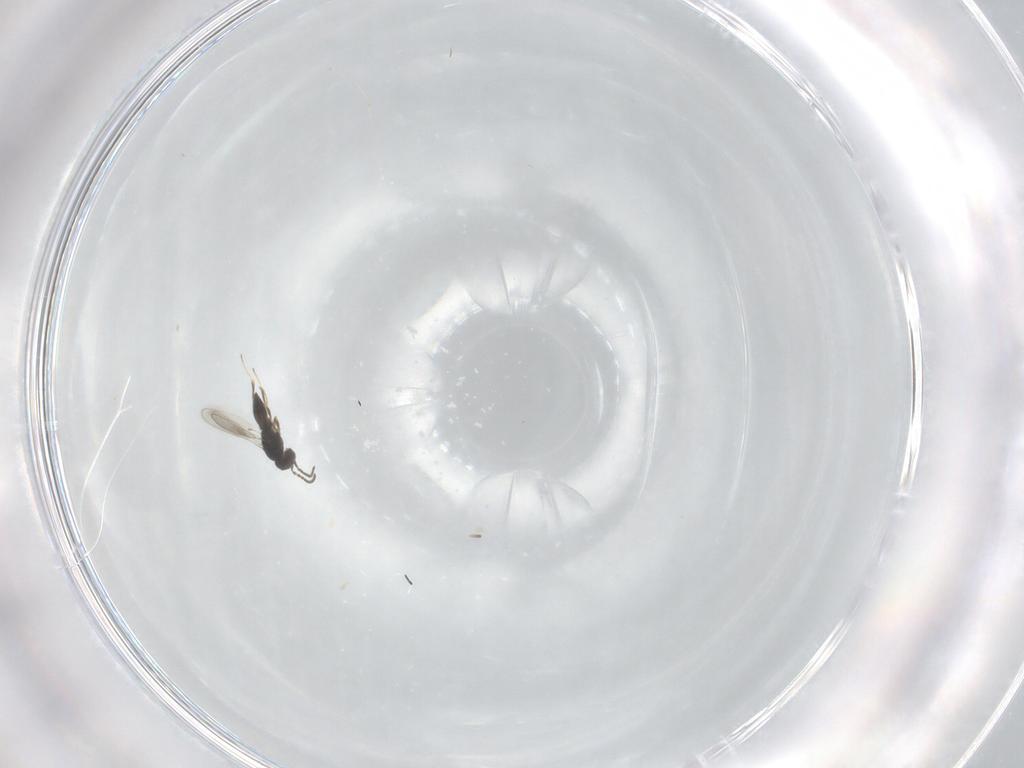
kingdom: Animalia
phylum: Arthropoda
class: Insecta
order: Hymenoptera
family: Scelionidae
